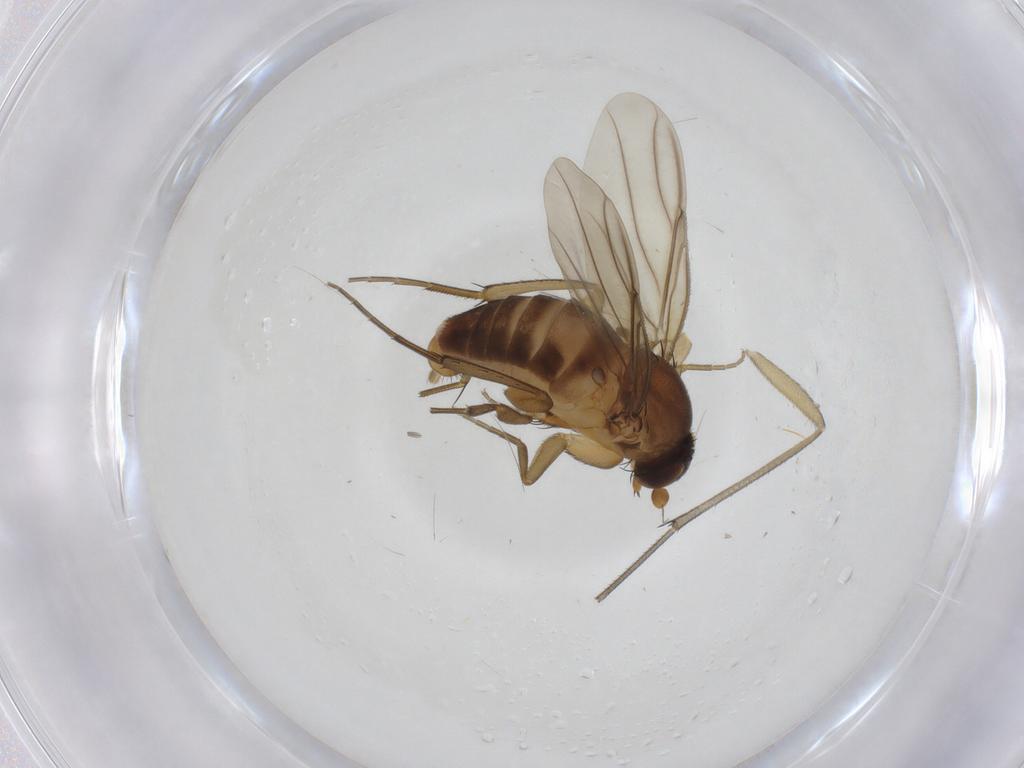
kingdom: Animalia
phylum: Arthropoda
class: Insecta
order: Diptera
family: Phoridae
